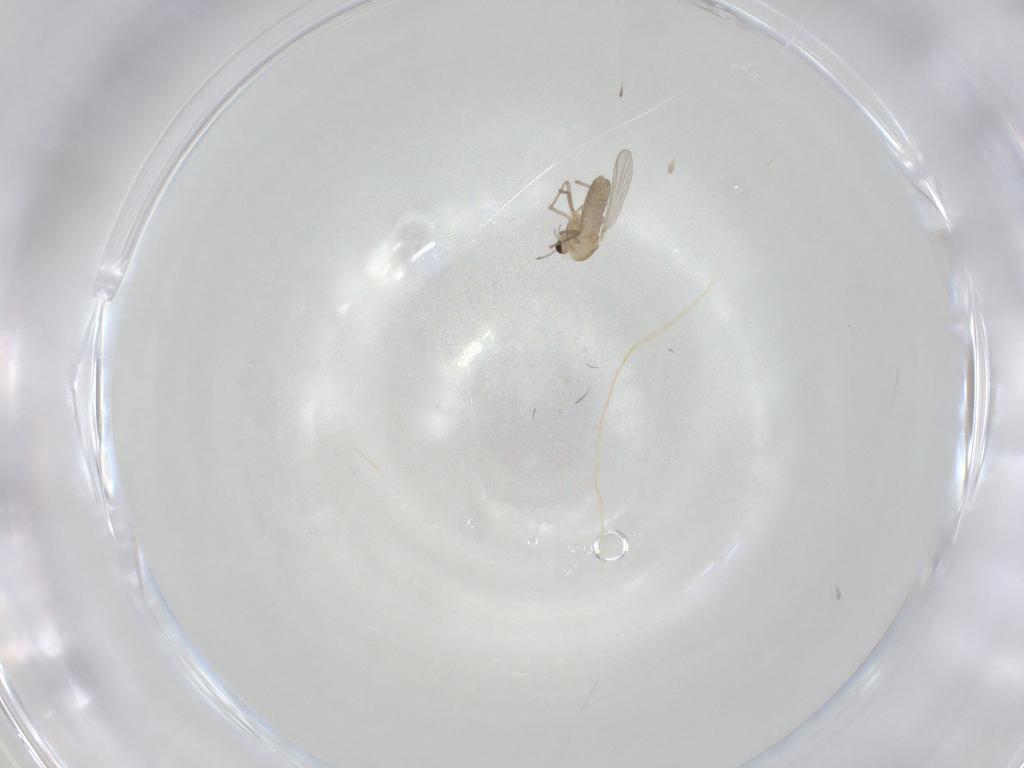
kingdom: Animalia
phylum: Arthropoda
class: Insecta
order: Diptera
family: Chironomidae
